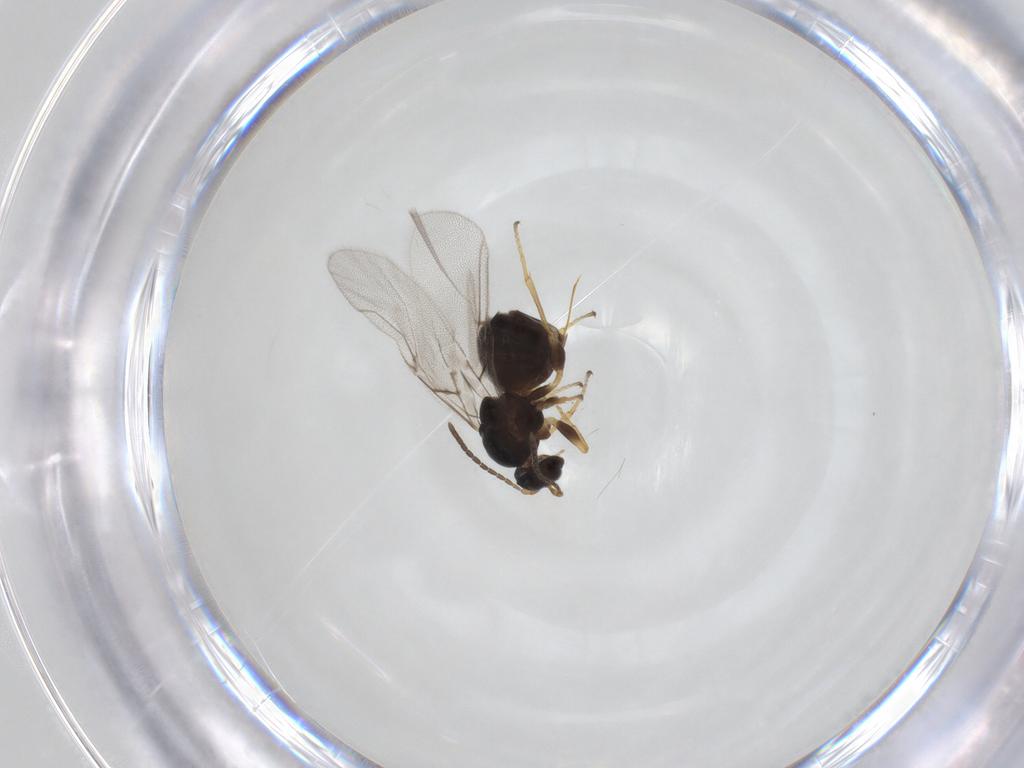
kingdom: Animalia
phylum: Arthropoda
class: Insecta
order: Hymenoptera
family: Cynipidae
